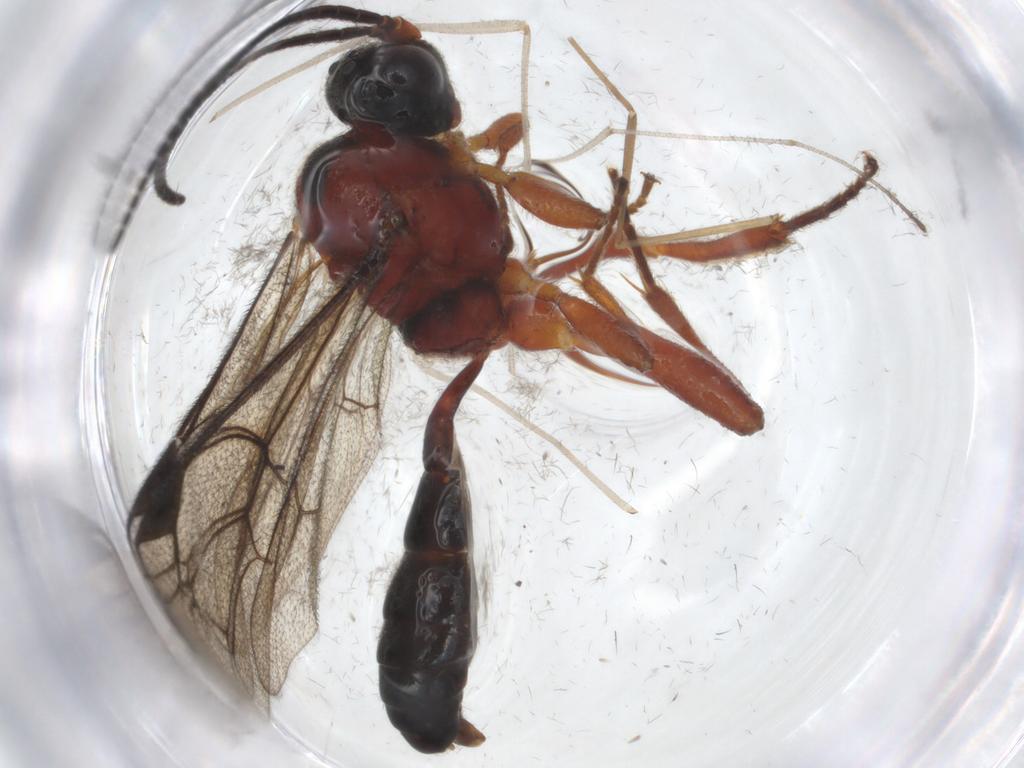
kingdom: Animalia
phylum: Arthropoda
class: Insecta
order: Hymenoptera
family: Ichneumonidae
